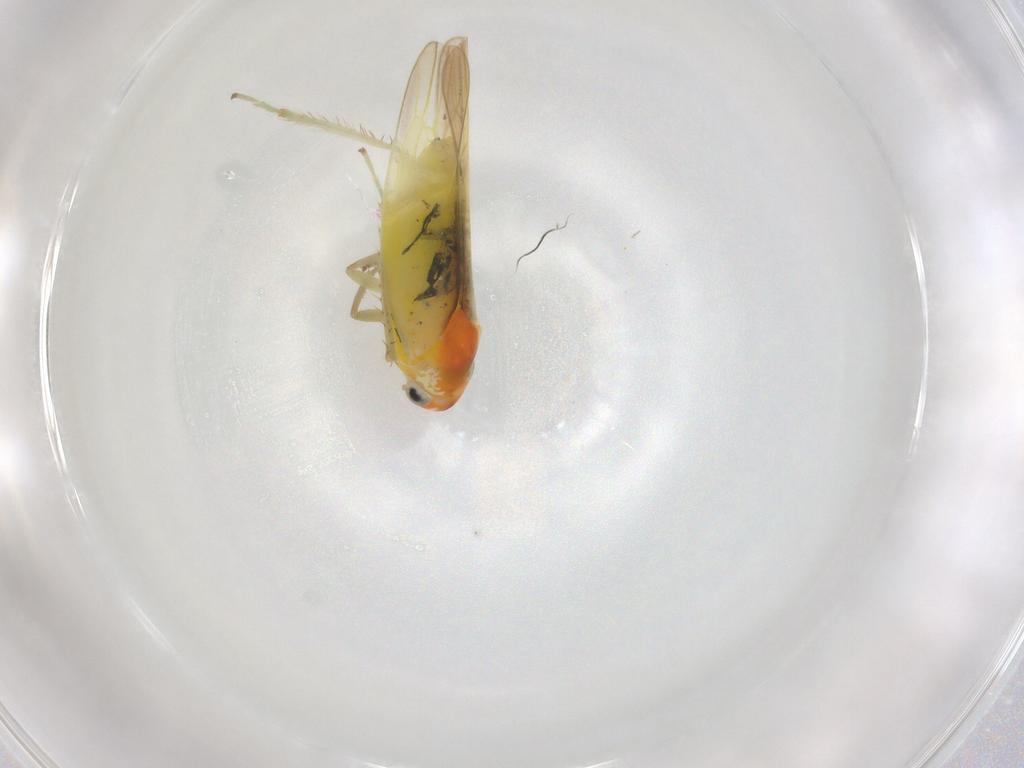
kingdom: Animalia
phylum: Arthropoda
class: Insecta
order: Hemiptera
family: Cicadellidae
